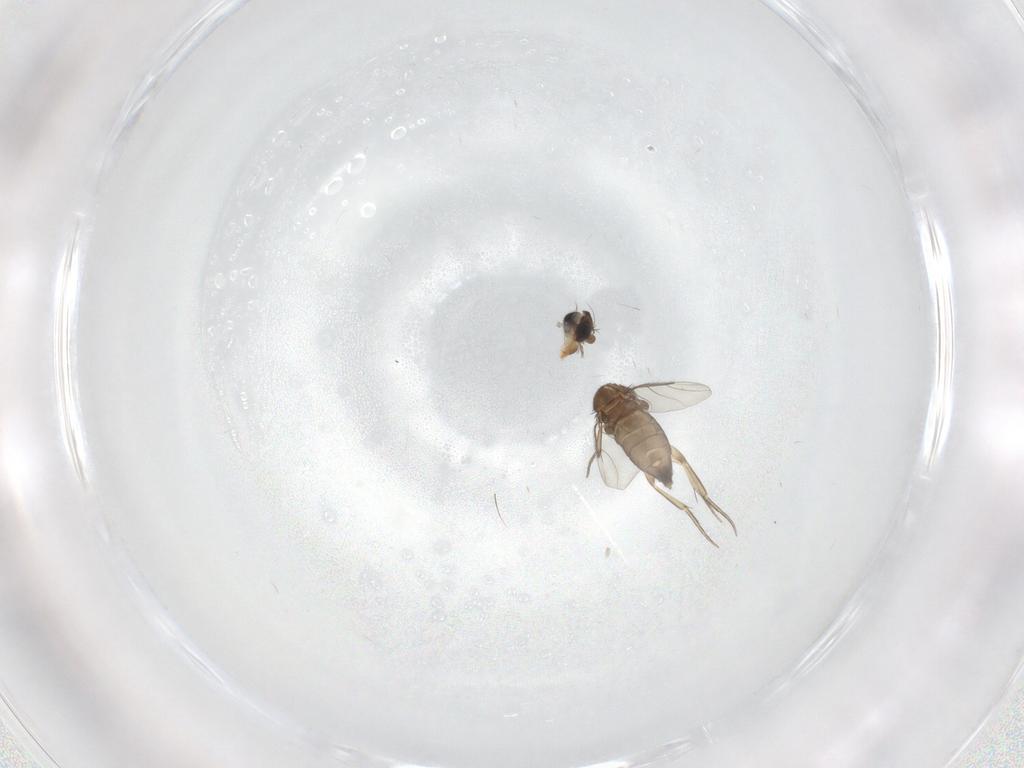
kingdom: Animalia
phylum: Arthropoda
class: Insecta
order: Diptera
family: Phoridae
